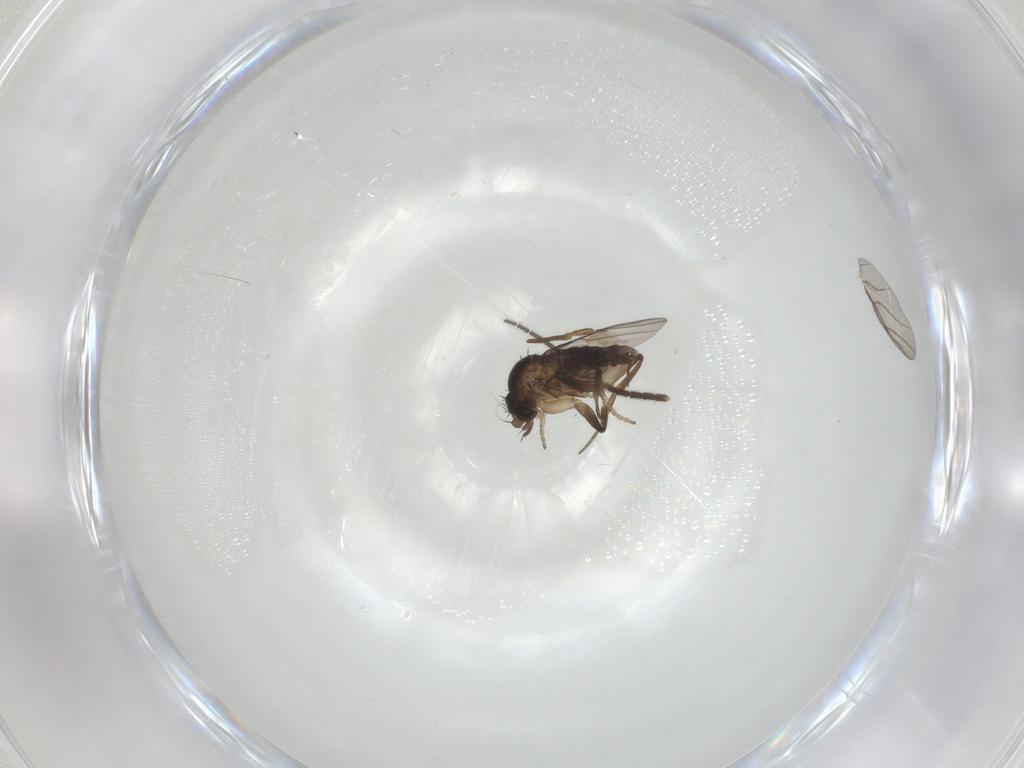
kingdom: Animalia
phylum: Arthropoda
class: Insecta
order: Diptera
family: Phoridae
